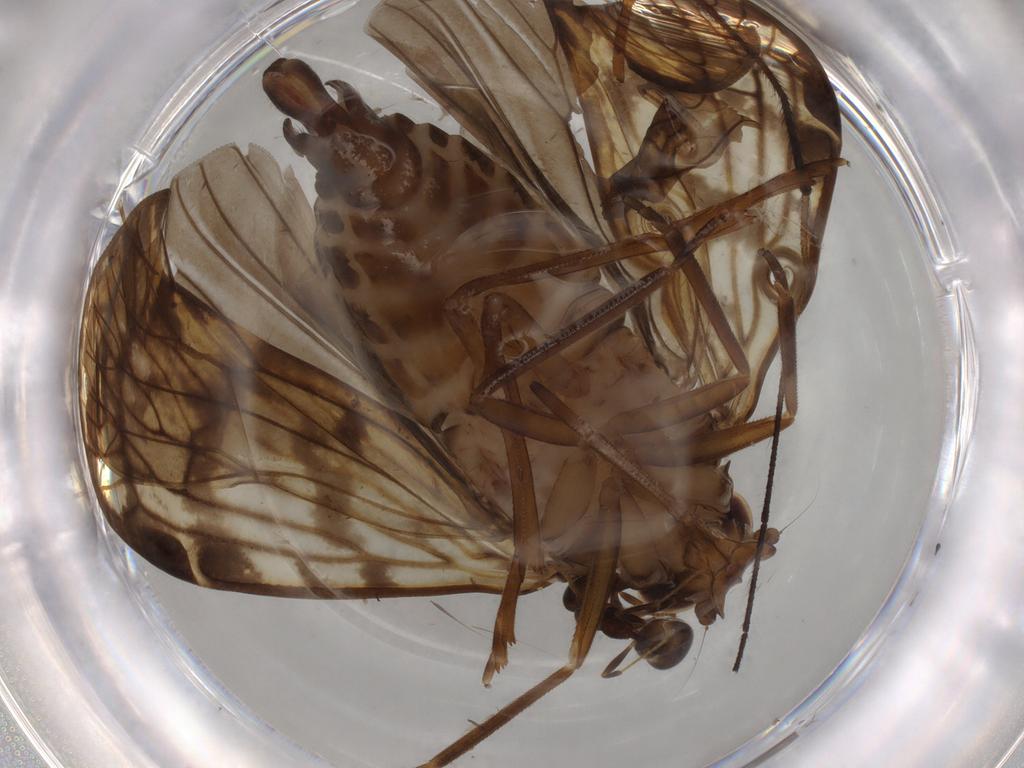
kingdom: Animalia
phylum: Arthropoda
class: Insecta
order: Diptera
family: Limoniidae
